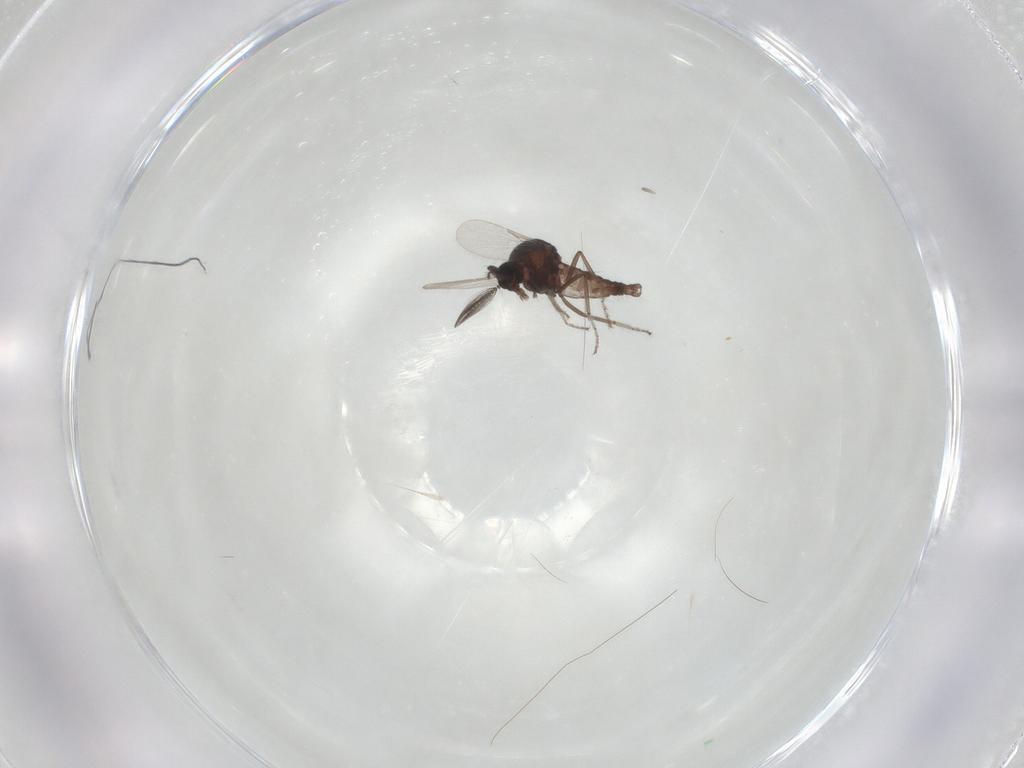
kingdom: Animalia
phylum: Arthropoda
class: Insecta
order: Diptera
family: Ceratopogonidae
